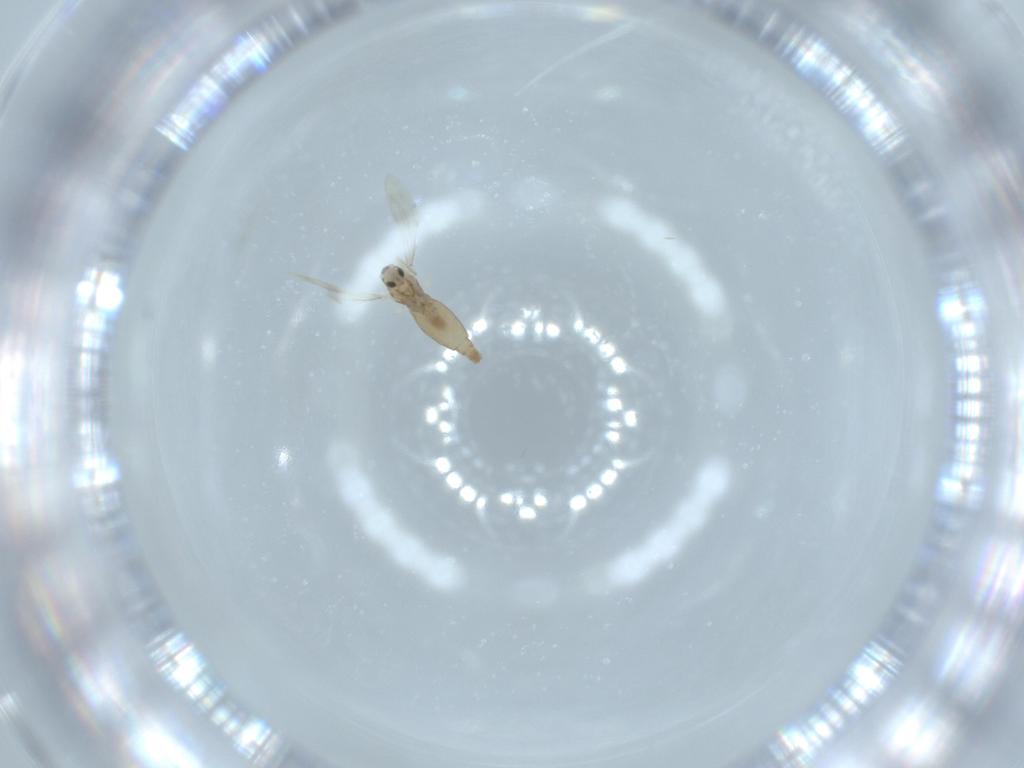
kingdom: Animalia
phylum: Arthropoda
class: Insecta
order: Diptera
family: Cecidomyiidae
